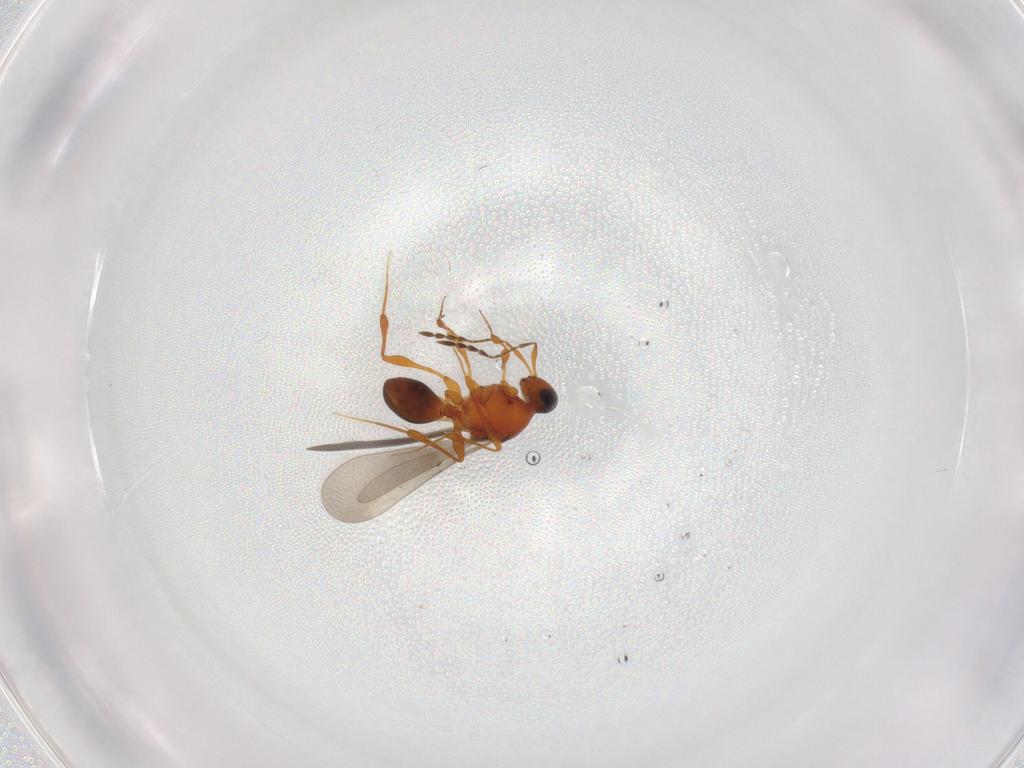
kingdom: Animalia
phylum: Arthropoda
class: Insecta
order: Hymenoptera
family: Platygastridae
